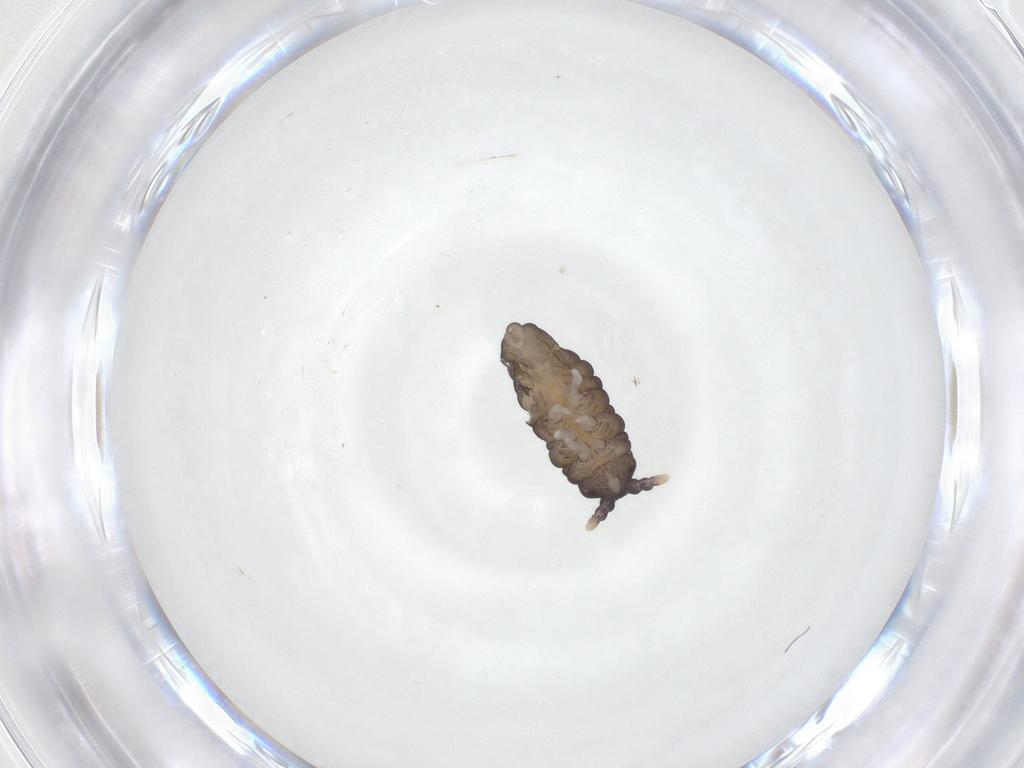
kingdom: Animalia
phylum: Arthropoda
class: Collembola
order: Poduromorpha
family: Neanuridae
